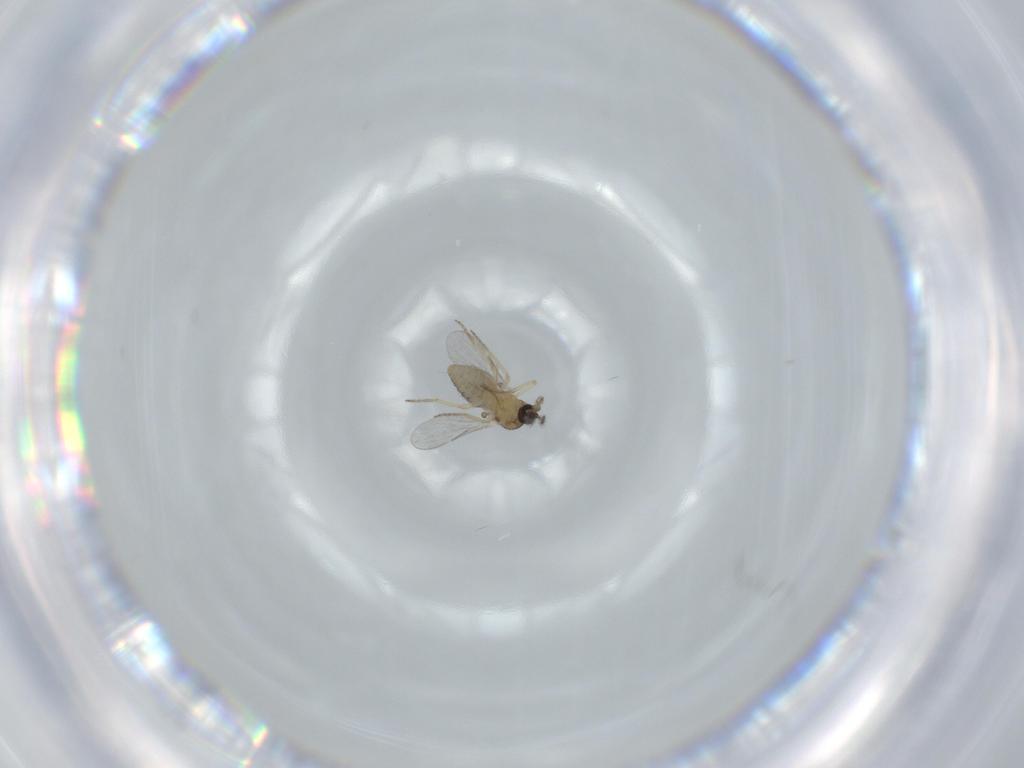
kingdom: Animalia
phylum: Arthropoda
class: Insecta
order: Diptera
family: Ceratopogonidae
